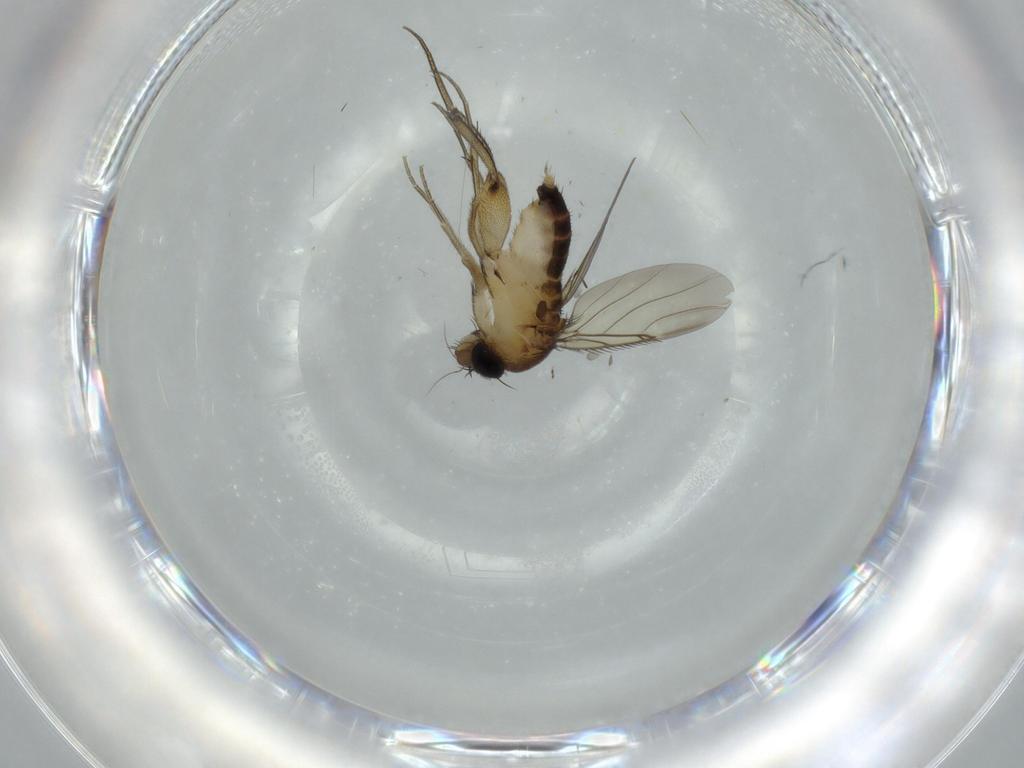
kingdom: Animalia
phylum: Arthropoda
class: Insecta
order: Diptera
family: Phoridae
